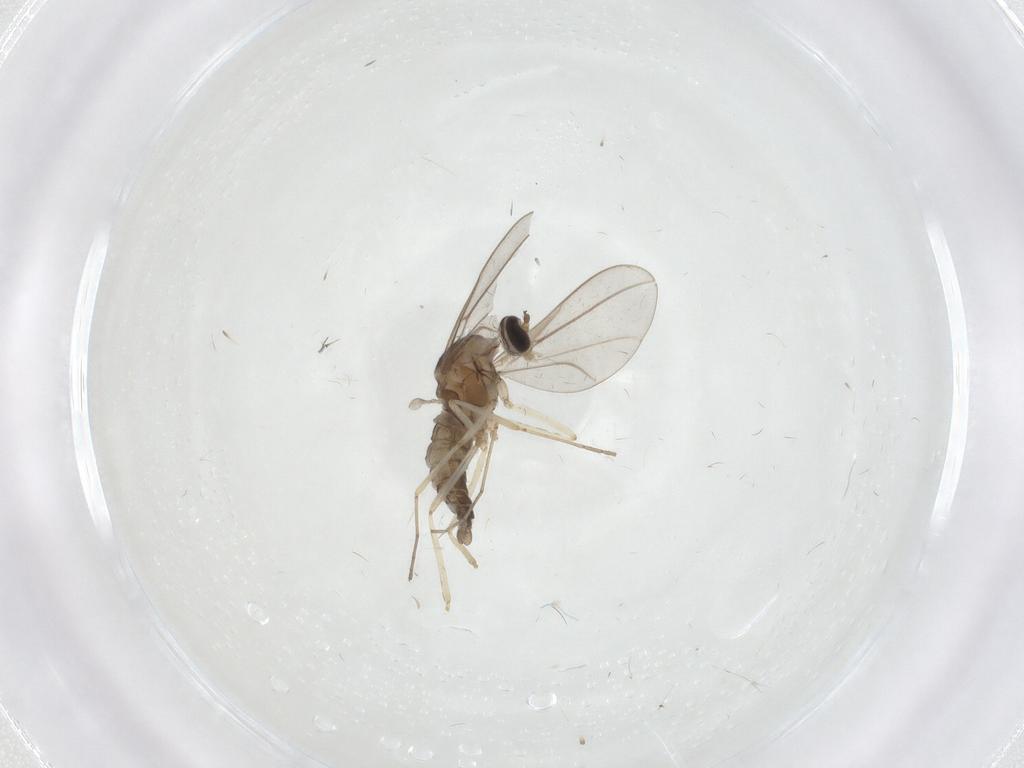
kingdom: Animalia
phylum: Arthropoda
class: Insecta
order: Diptera
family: Cecidomyiidae
